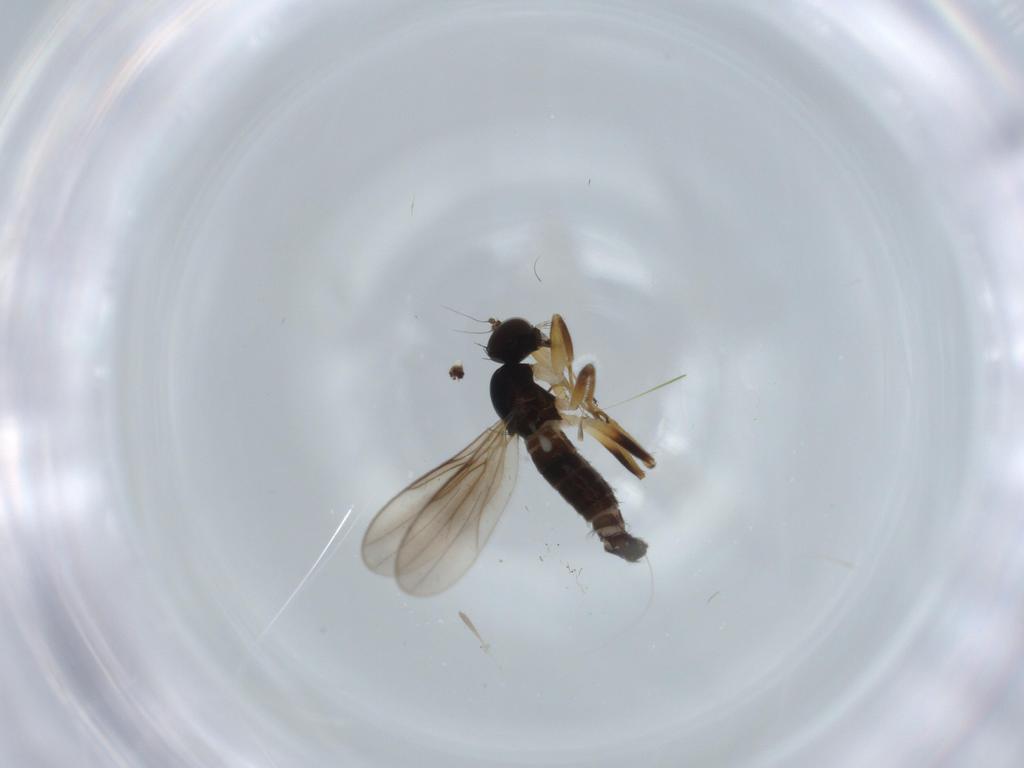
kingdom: Animalia
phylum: Arthropoda
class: Insecta
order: Diptera
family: Hybotidae
